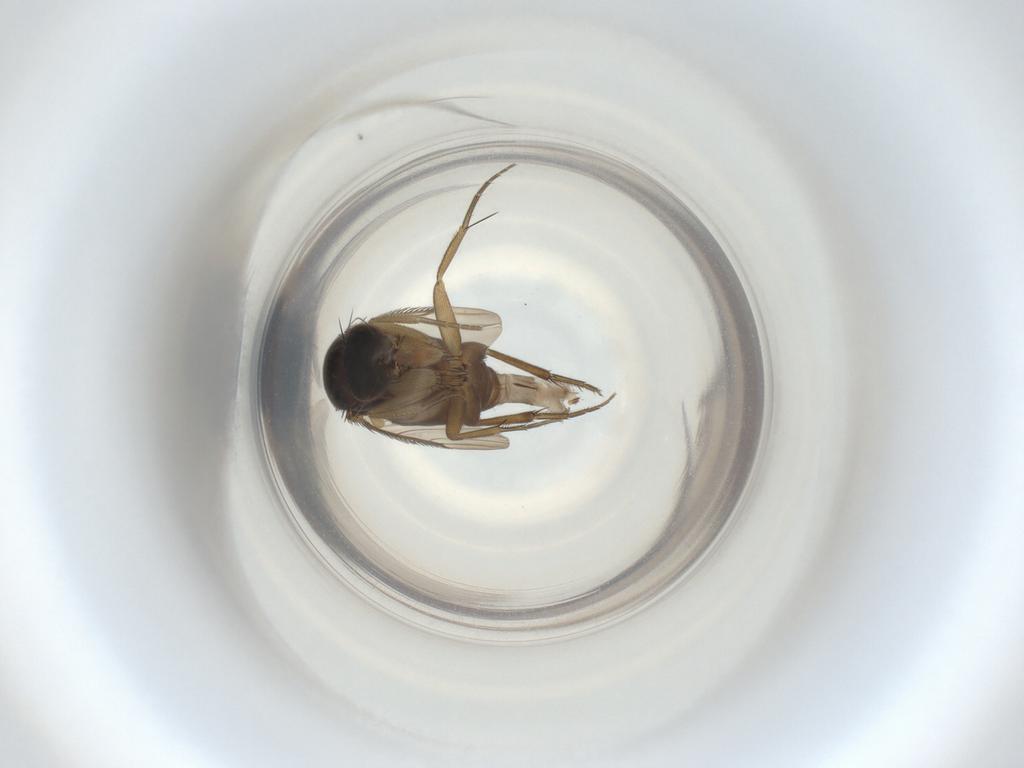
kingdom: Animalia
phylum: Arthropoda
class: Insecta
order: Diptera
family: Phoridae
